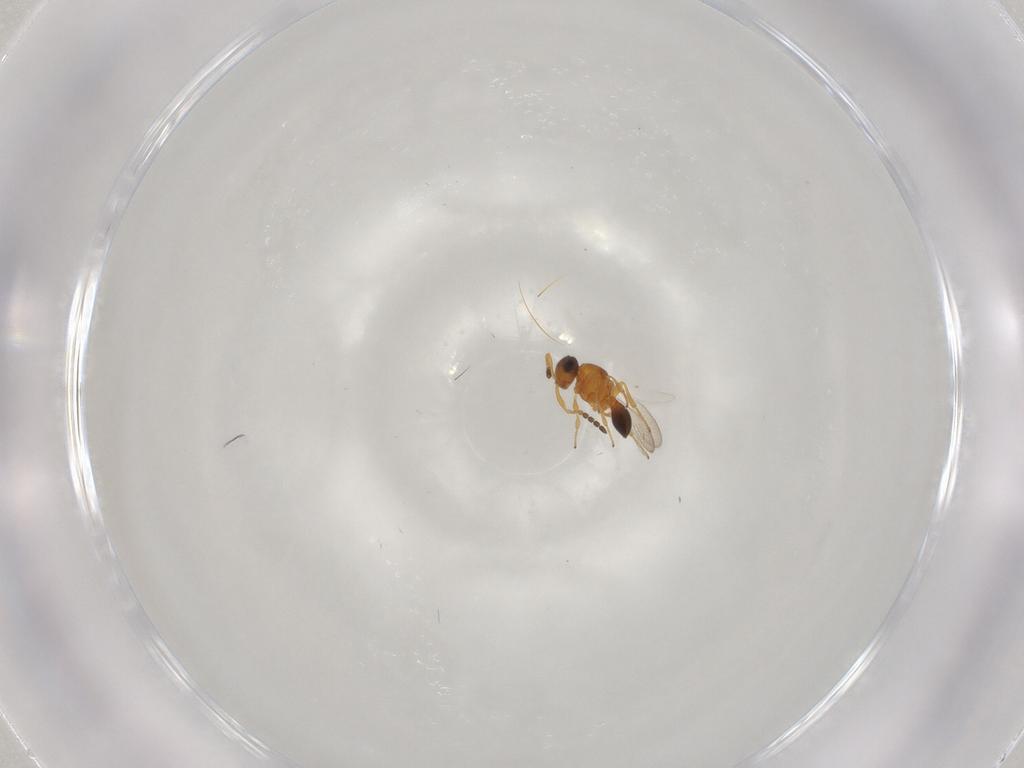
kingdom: Animalia
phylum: Arthropoda
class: Insecta
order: Hymenoptera
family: Platygastridae
